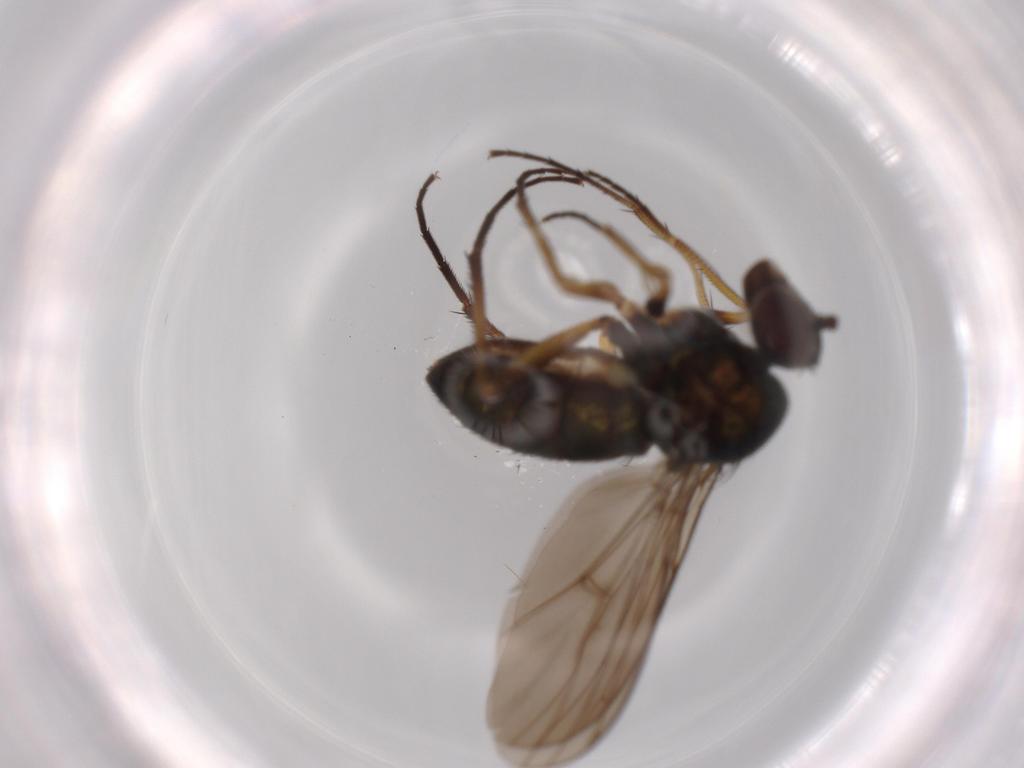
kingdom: Animalia
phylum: Arthropoda
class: Insecta
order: Diptera
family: Dolichopodidae
